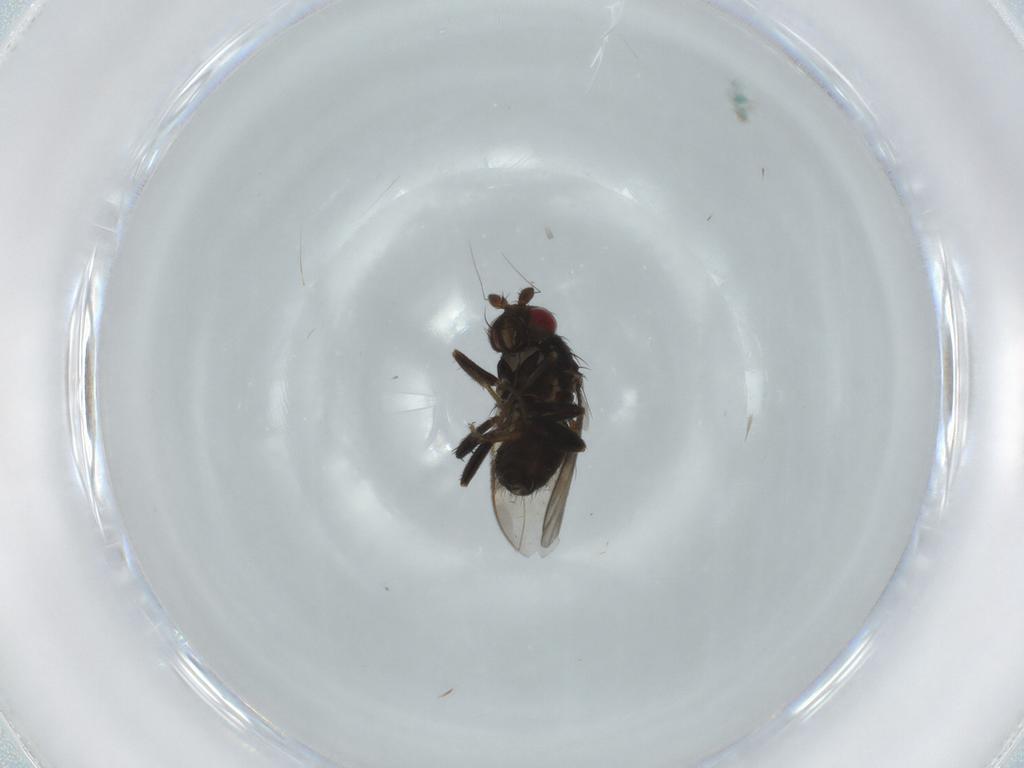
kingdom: Animalia
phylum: Arthropoda
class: Insecta
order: Diptera
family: Sphaeroceridae
